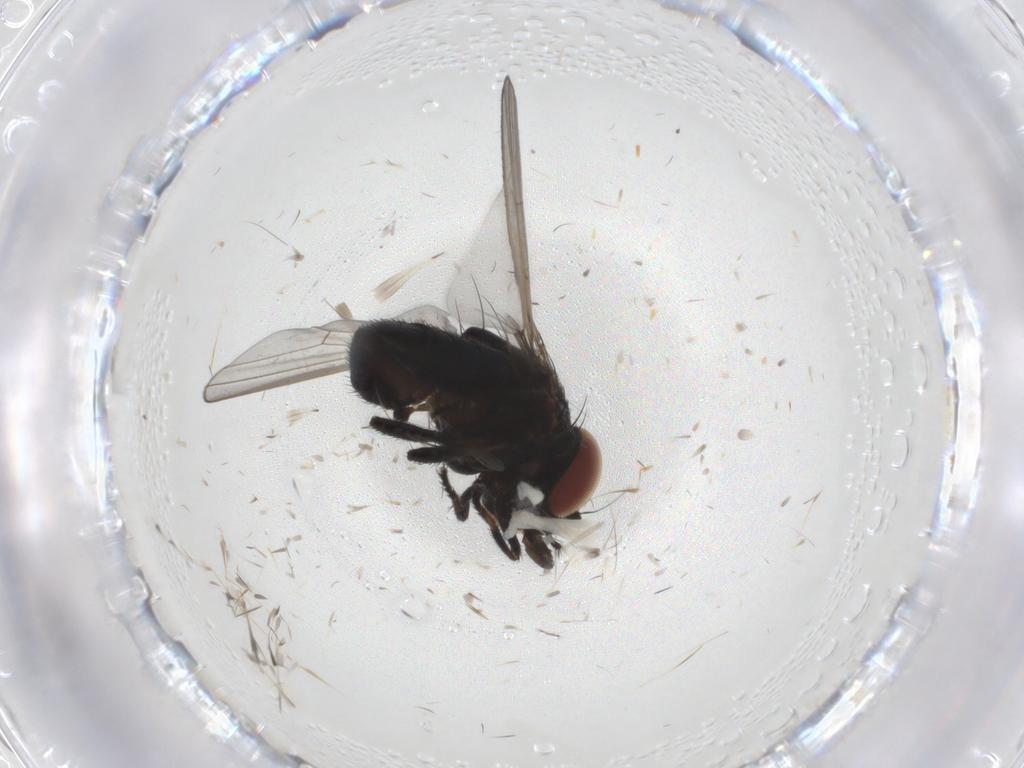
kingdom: Animalia
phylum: Arthropoda
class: Insecta
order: Diptera
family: Milichiidae
